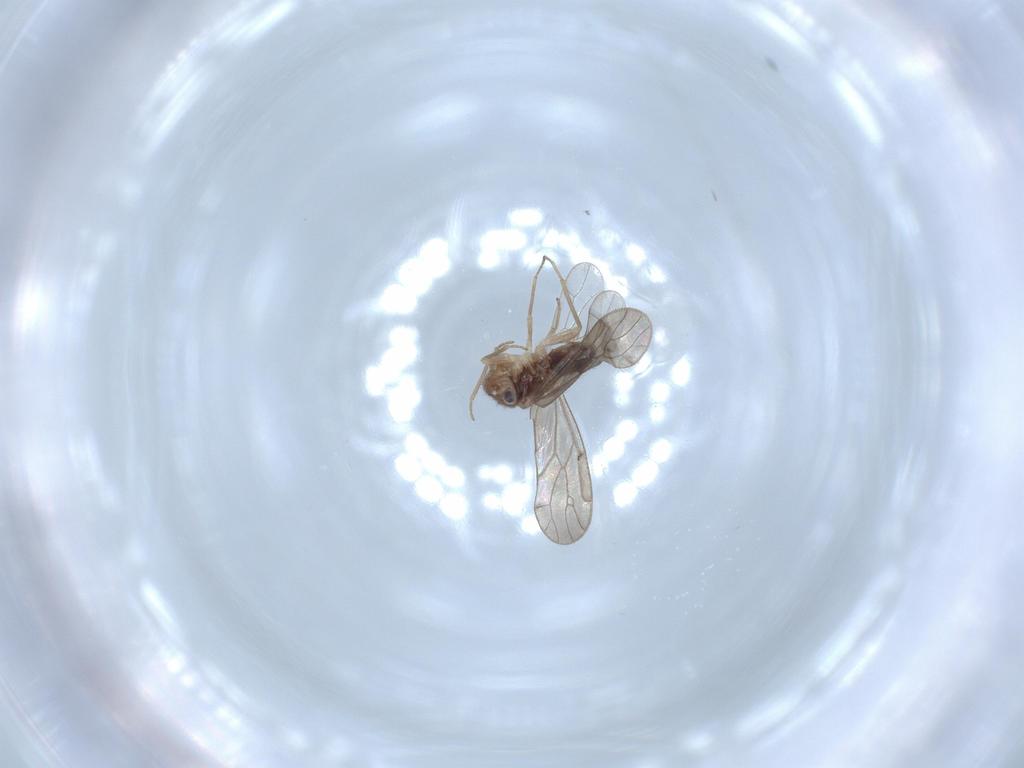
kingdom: Animalia
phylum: Arthropoda
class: Insecta
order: Psocodea
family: Ectopsocidae
